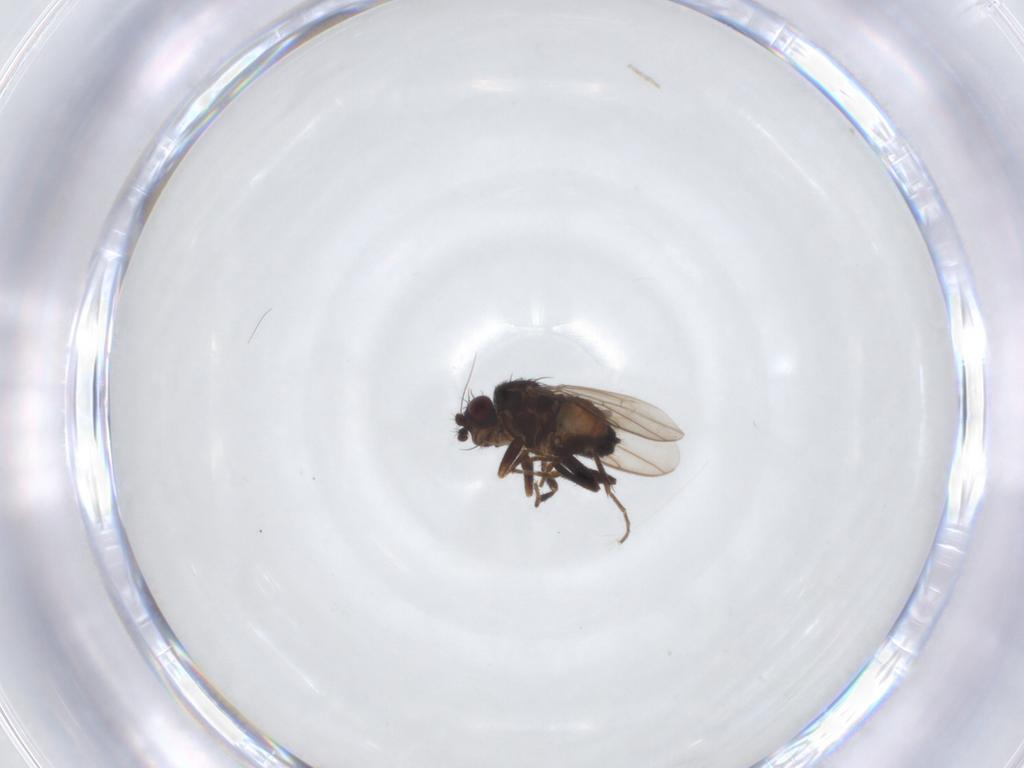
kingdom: Animalia
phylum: Arthropoda
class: Insecta
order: Diptera
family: Sphaeroceridae
